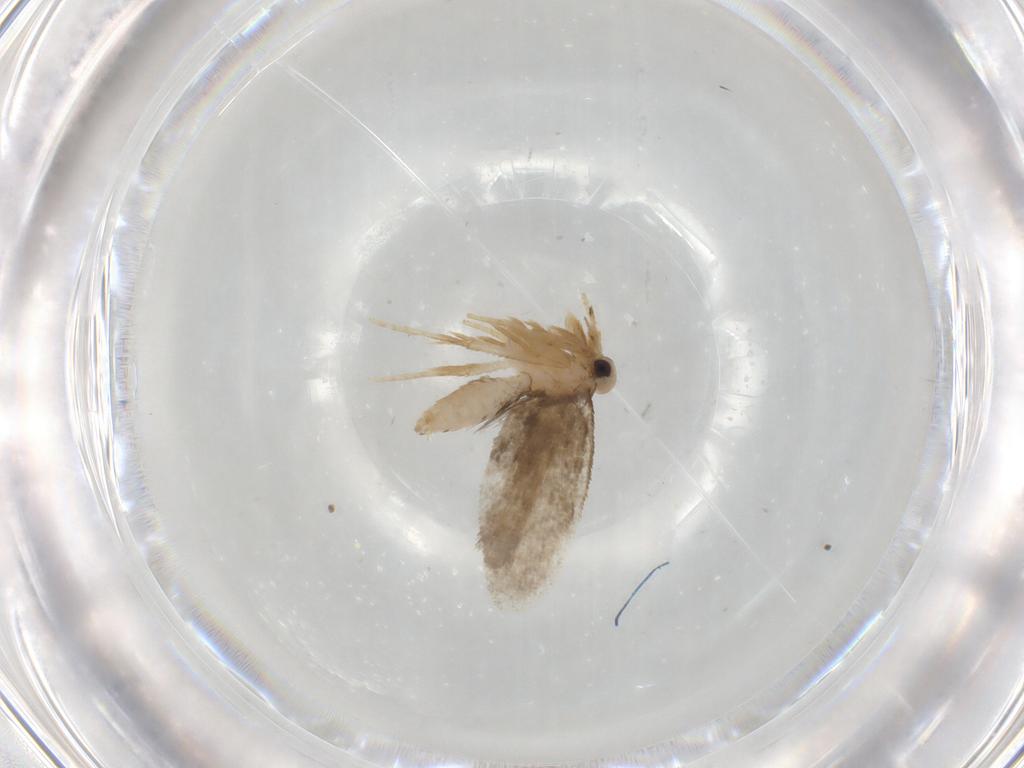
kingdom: Animalia
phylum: Arthropoda
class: Insecta
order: Lepidoptera
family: Psychidae
